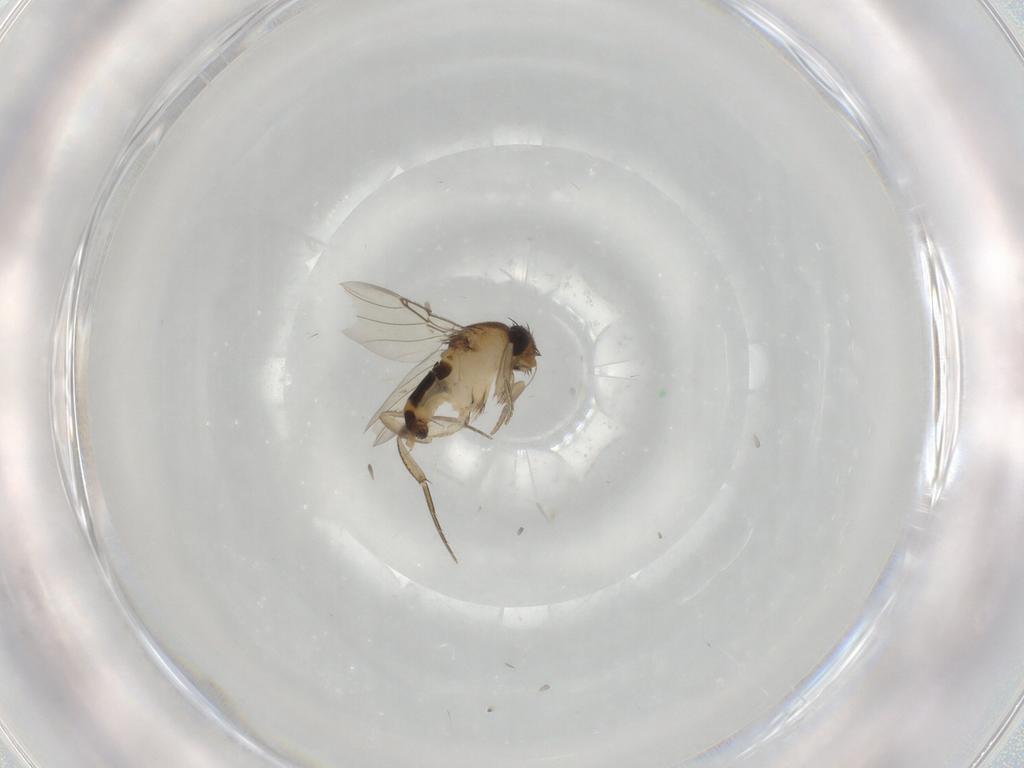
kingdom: Animalia
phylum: Arthropoda
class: Insecta
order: Diptera
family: Phoridae
